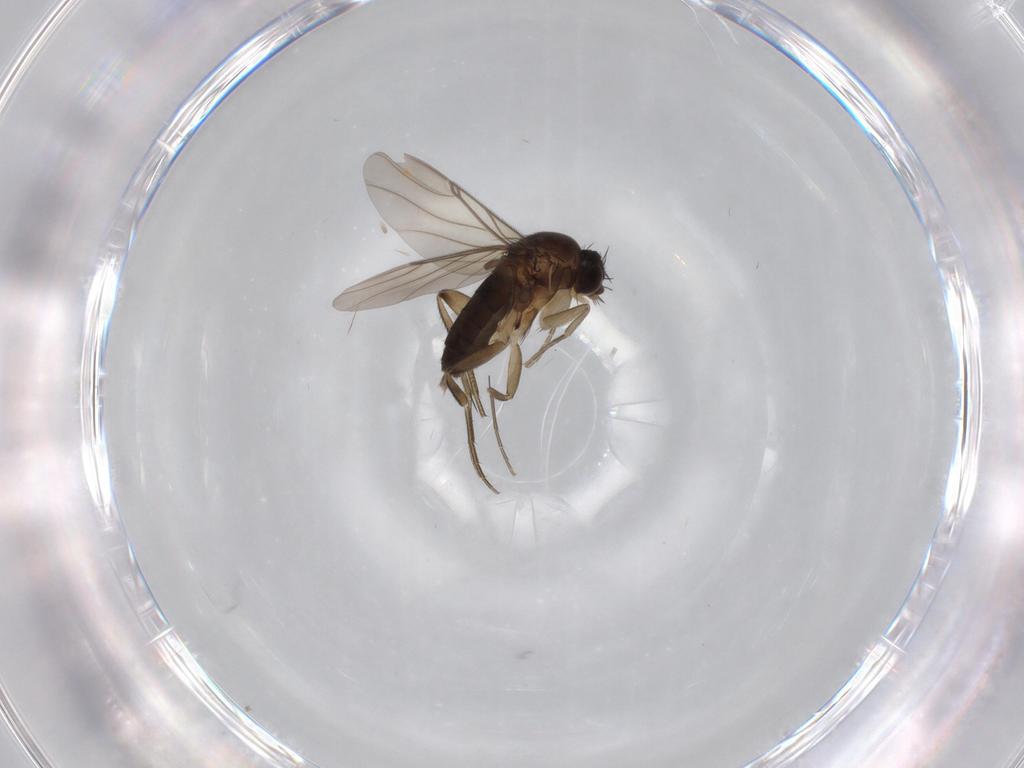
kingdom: Animalia
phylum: Arthropoda
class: Insecta
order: Diptera
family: Phoridae
